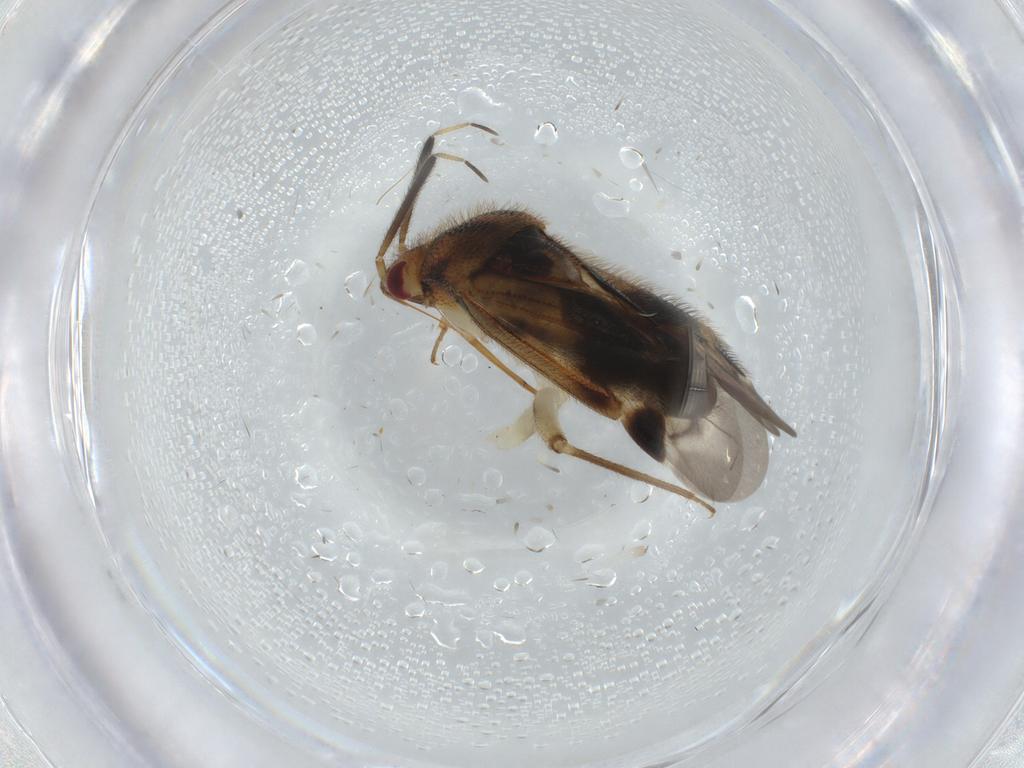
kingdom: Animalia
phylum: Arthropoda
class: Insecta
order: Hemiptera
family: Miridae
